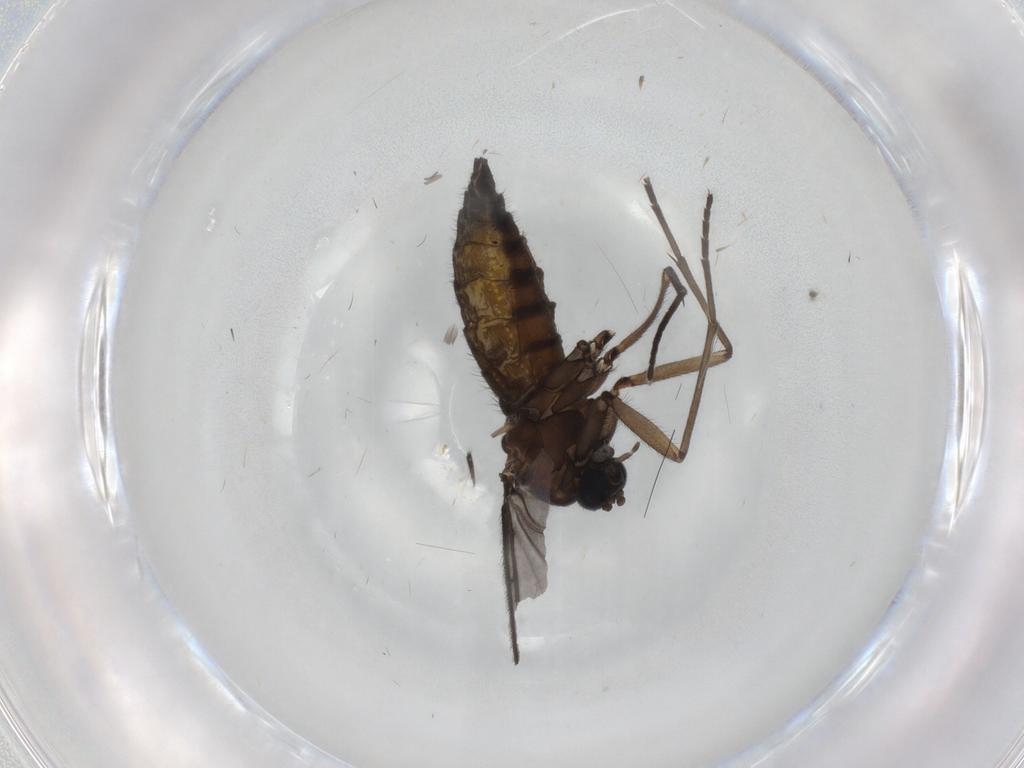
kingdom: Animalia
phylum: Arthropoda
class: Insecta
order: Diptera
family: Sciaridae
